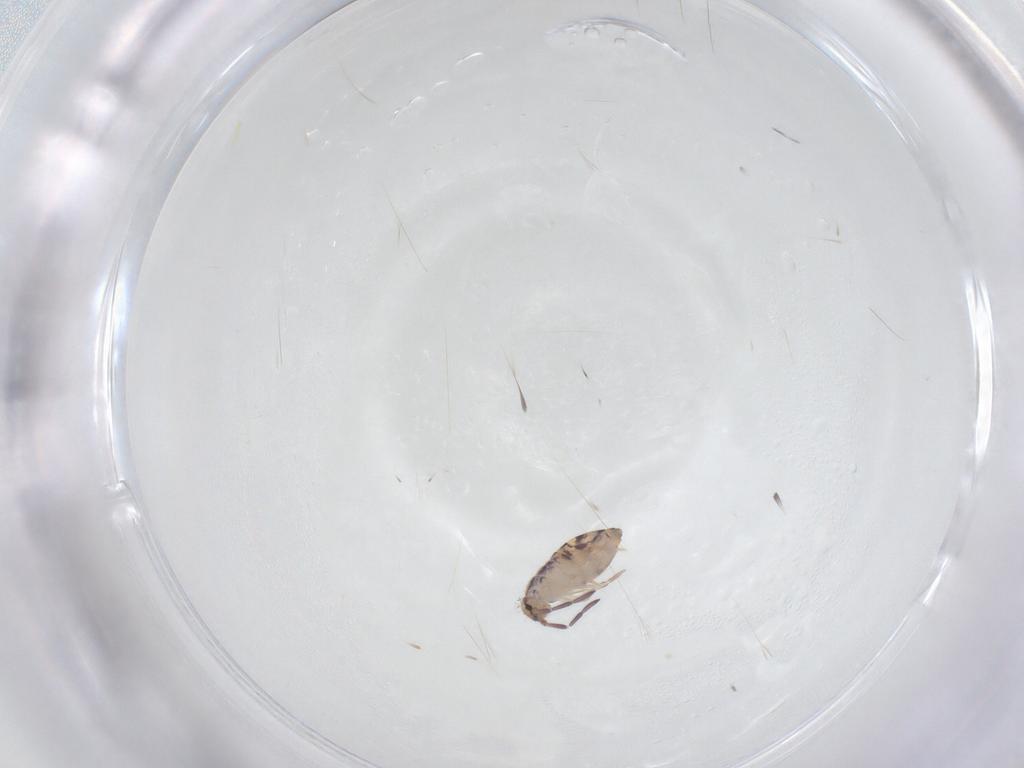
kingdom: Animalia
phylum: Arthropoda
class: Collembola
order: Entomobryomorpha
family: Entomobryidae
